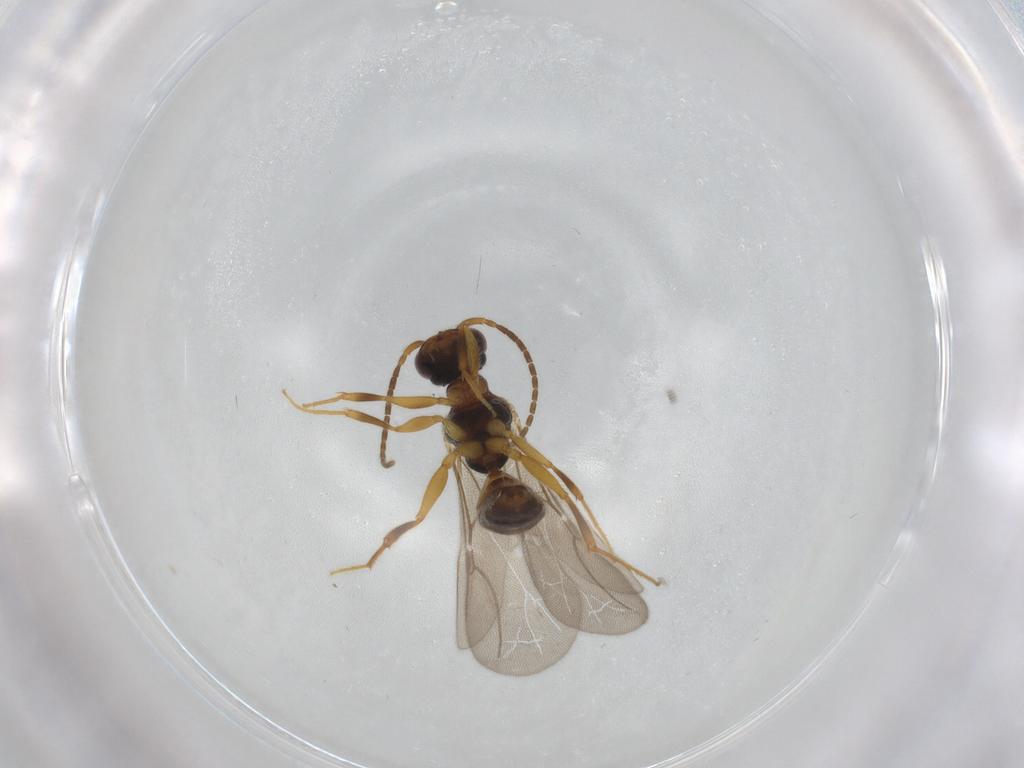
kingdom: Animalia
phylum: Arthropoda
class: Insecta
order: Hymenoptera
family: Bethylidae
